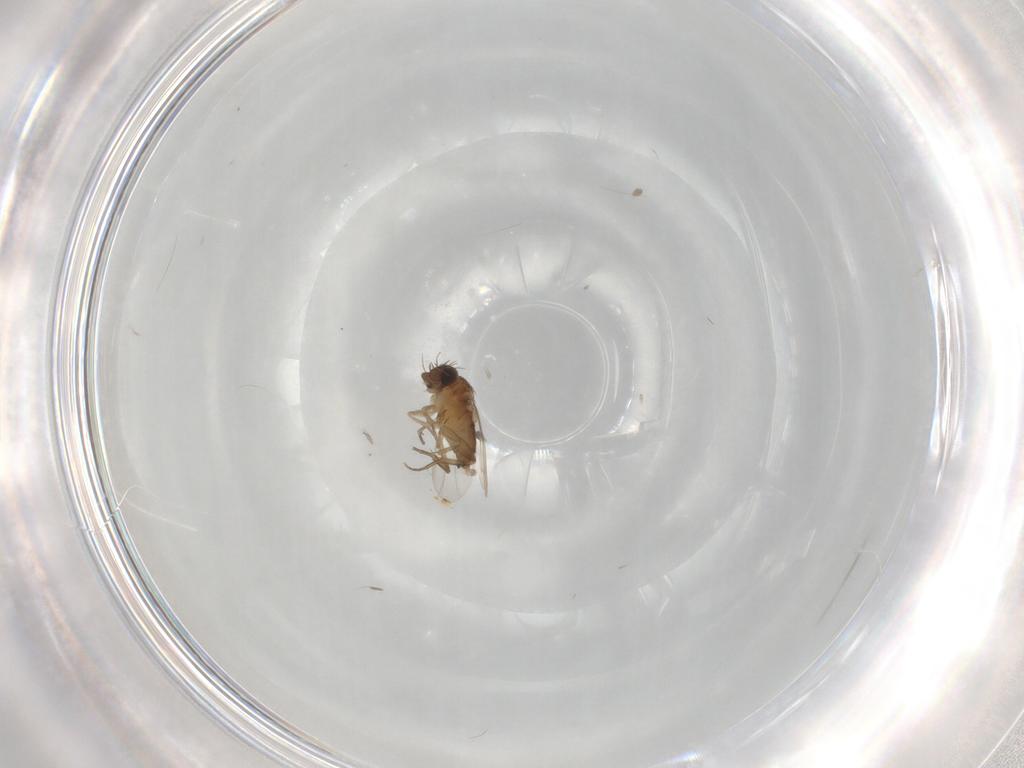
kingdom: Animalia
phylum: Arthropoda
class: Insecta
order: Diptera
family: Phoridae
